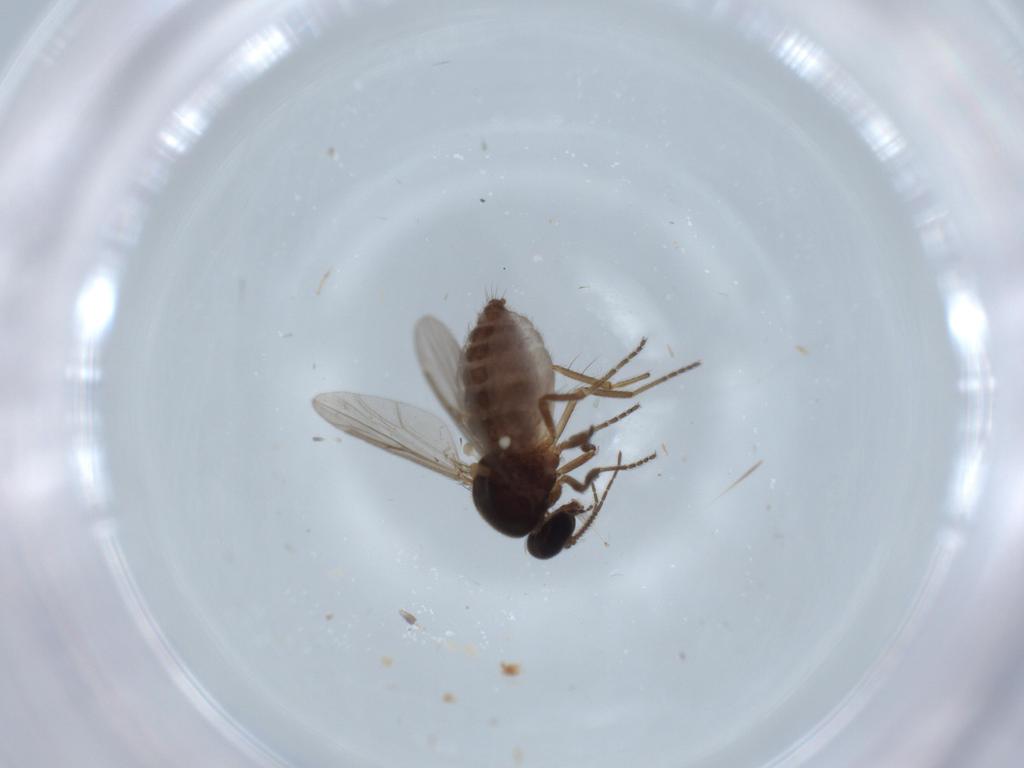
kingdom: Animalia
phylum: Arthropoda
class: Insecta
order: Diptera
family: Ceratopogonidae
